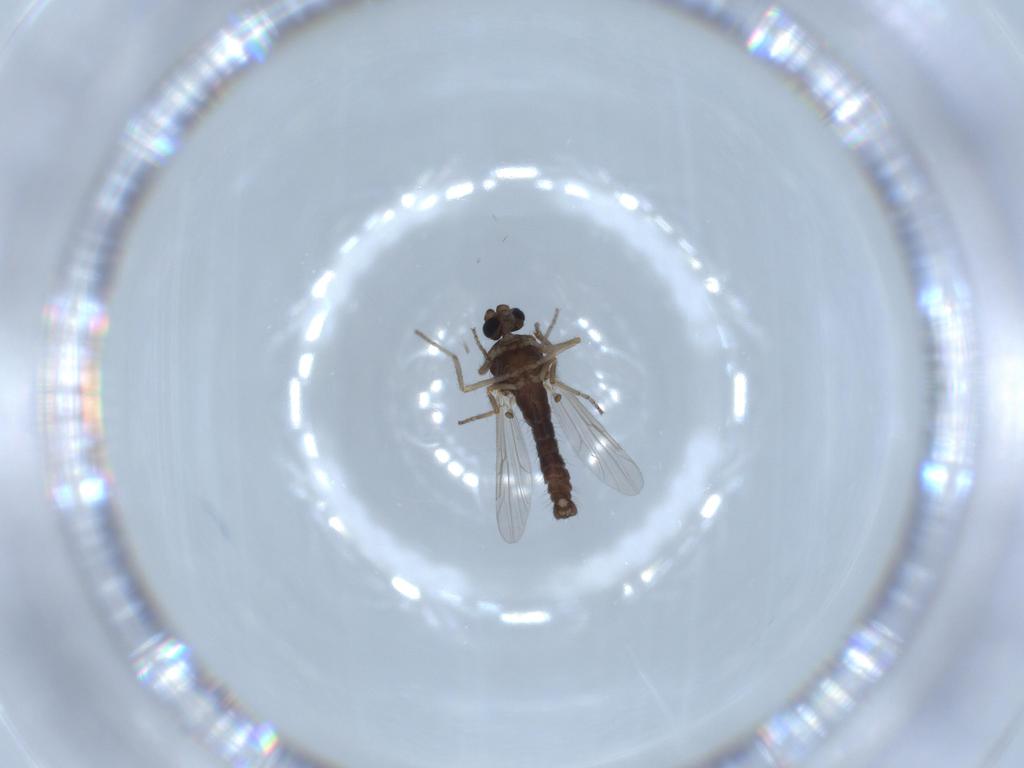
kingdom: Animalia
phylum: Arthropoda
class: Insecta
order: Diptera
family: Ceratopogonidae
